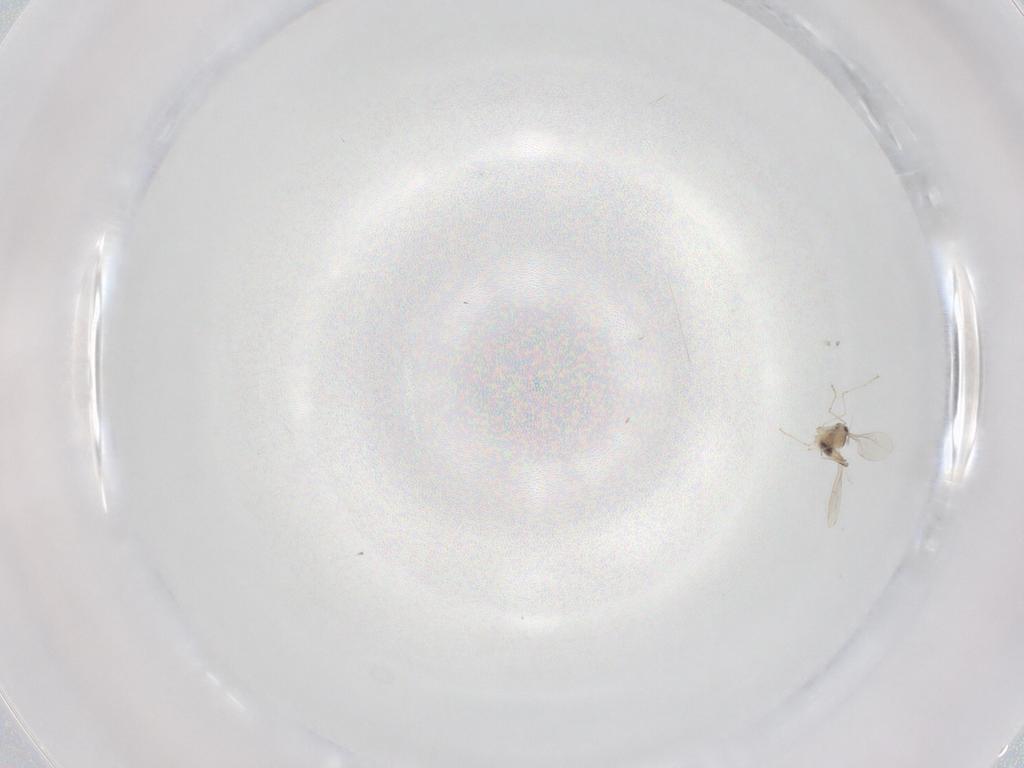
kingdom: Animalia
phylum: Arthropoda
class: Insecta
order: Diptera
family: Cecidomyiidae
